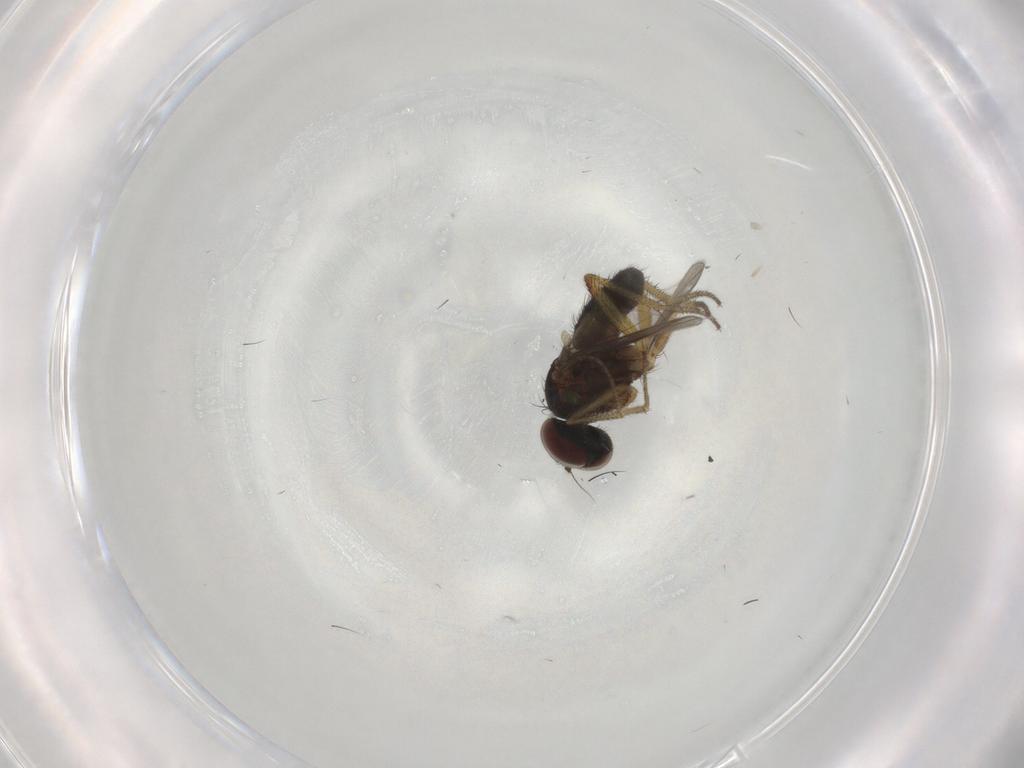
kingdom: Animalia
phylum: Arthropoda
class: Insecta
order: Diptera
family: Dolichopodidae
